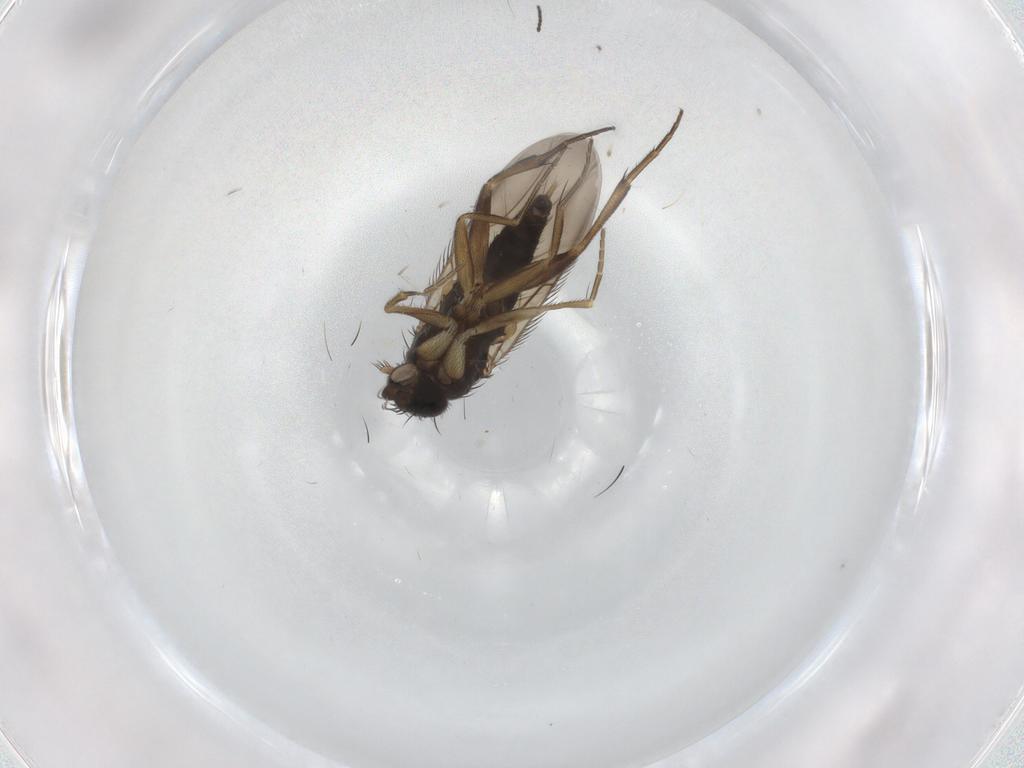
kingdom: Animalia
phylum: Arthropoda
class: Insecta
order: Diptera
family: Phoridae
